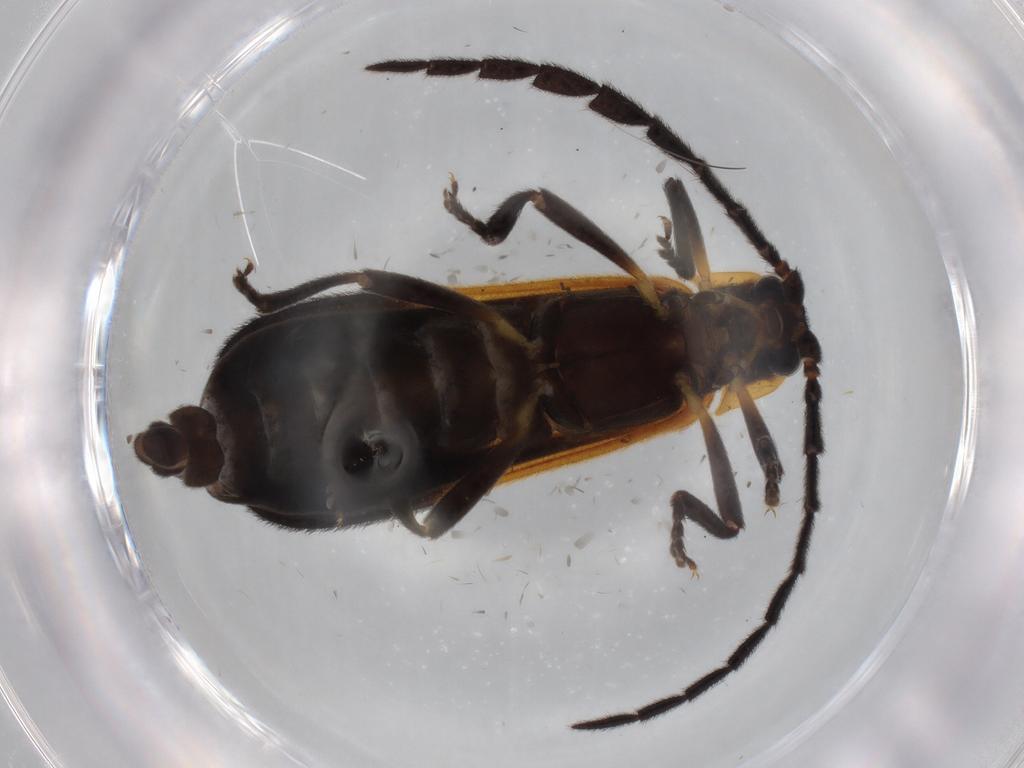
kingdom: Animalia
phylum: Arthropoda
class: Insecta
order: Coleoptera
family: Lycidae
